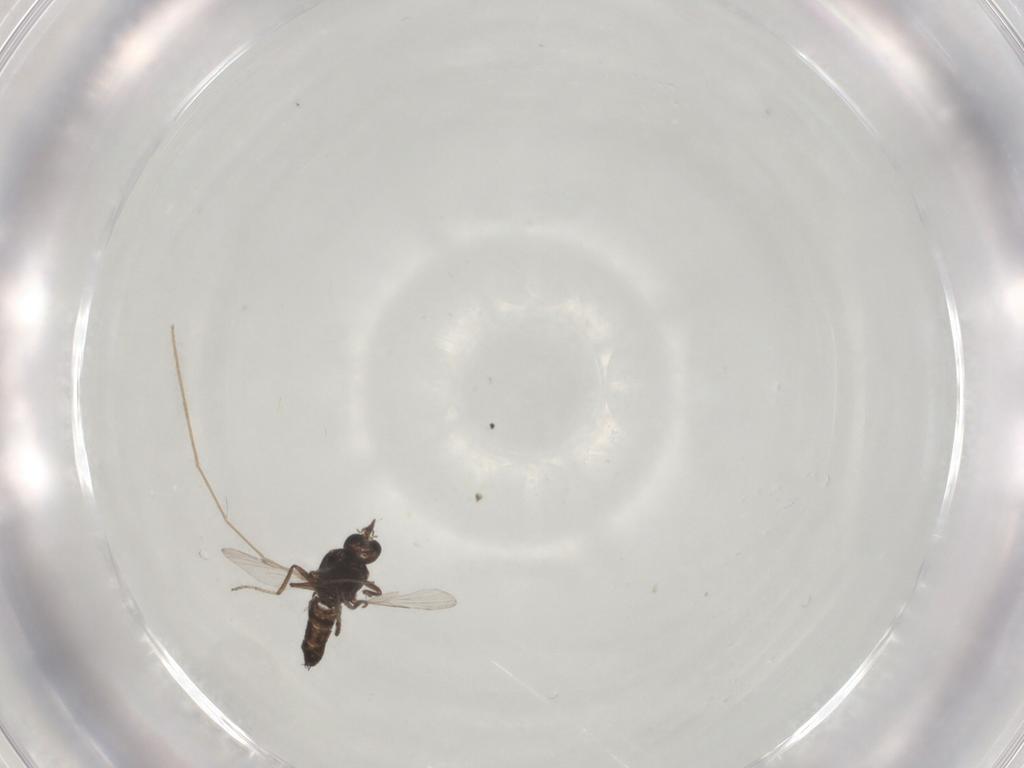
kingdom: Animalia
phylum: Arthropoda
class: Insecta
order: Diptera
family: Ceratopogonidae
